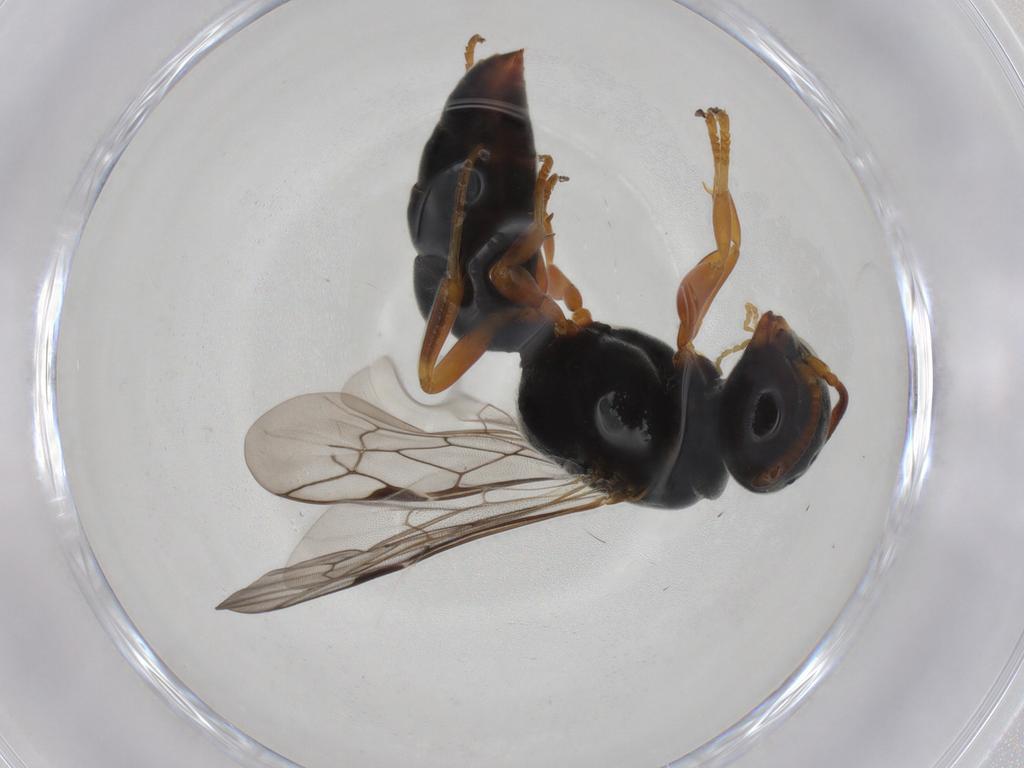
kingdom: Animalia
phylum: Arthropoda
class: Insecta
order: Hymenoptera
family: Crabronidae
